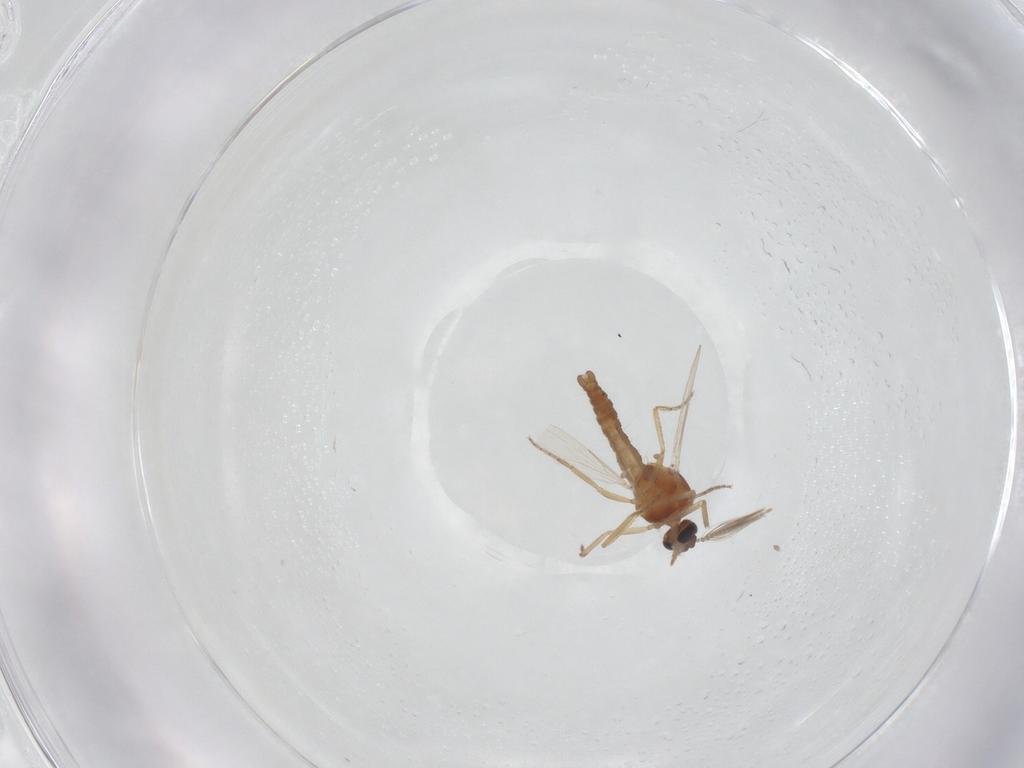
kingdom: Animalia
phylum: Arthropoda
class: Insecta
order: Diptera
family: Ceratopogonidae
